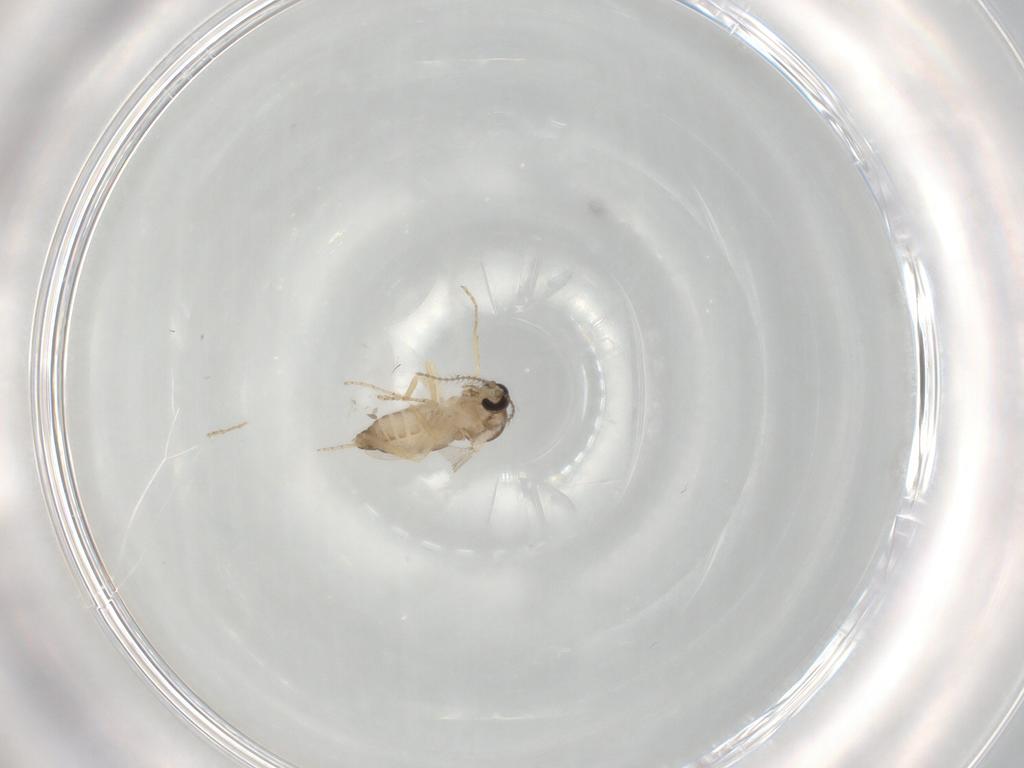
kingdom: Animalia
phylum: Arthropoda
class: Insecta
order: Diptera
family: Ceratopogonidae
